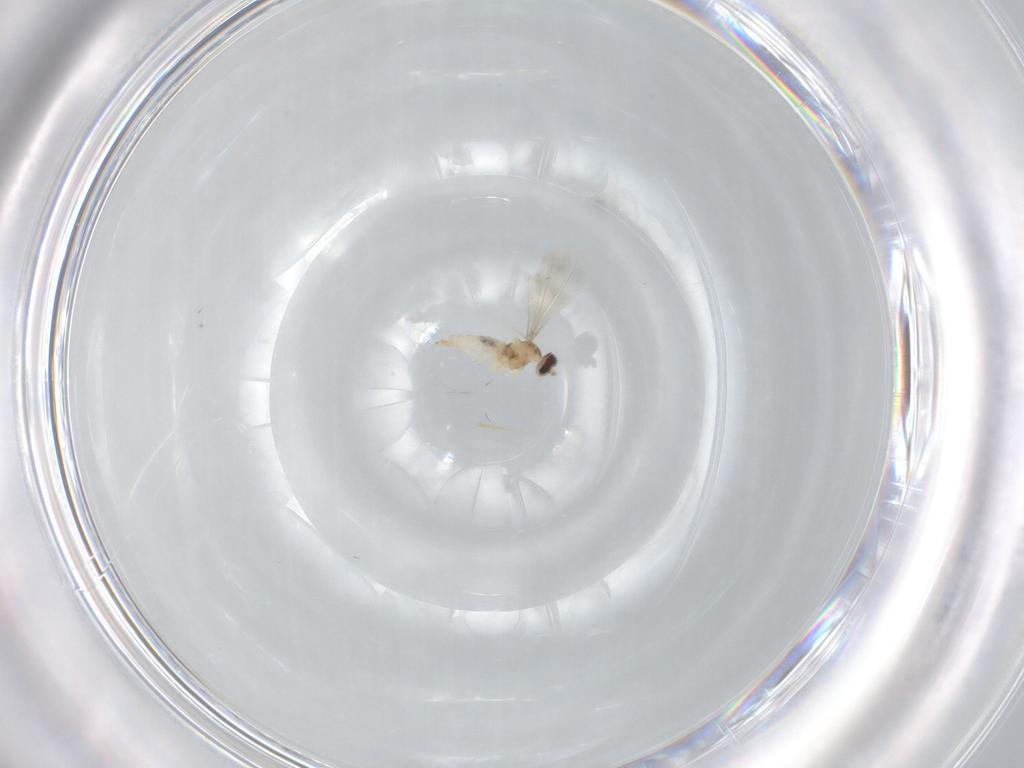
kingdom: Animalia
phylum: Arthropoda
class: Insecta
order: Diptera
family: Cecidomyiidae
